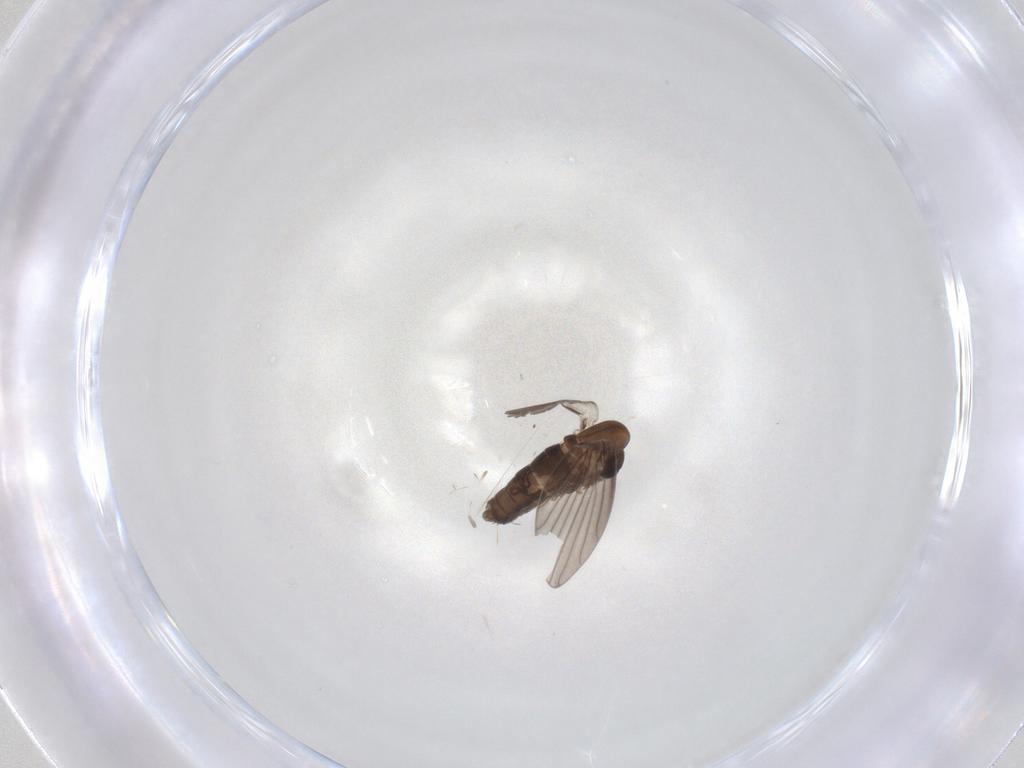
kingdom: Animalia
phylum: Arthropoda
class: Insecta
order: Diptera
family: Psychodidae
